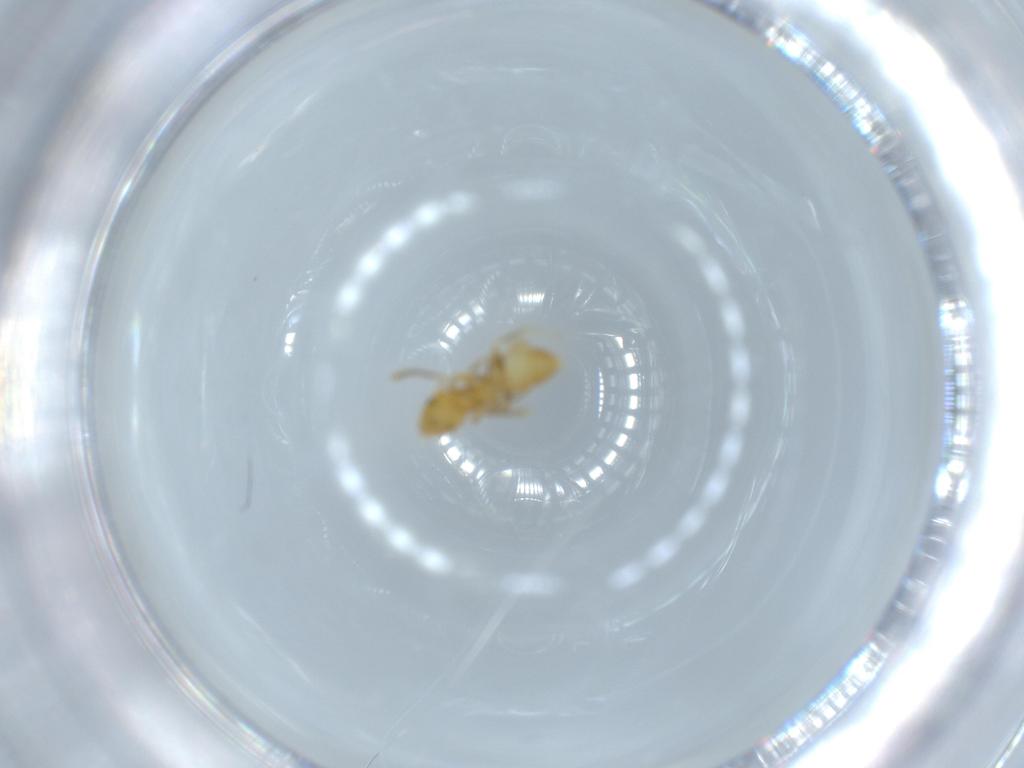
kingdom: Animalia
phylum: Arthropoda
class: Insecta
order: Hymenoptera
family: Formicidae
